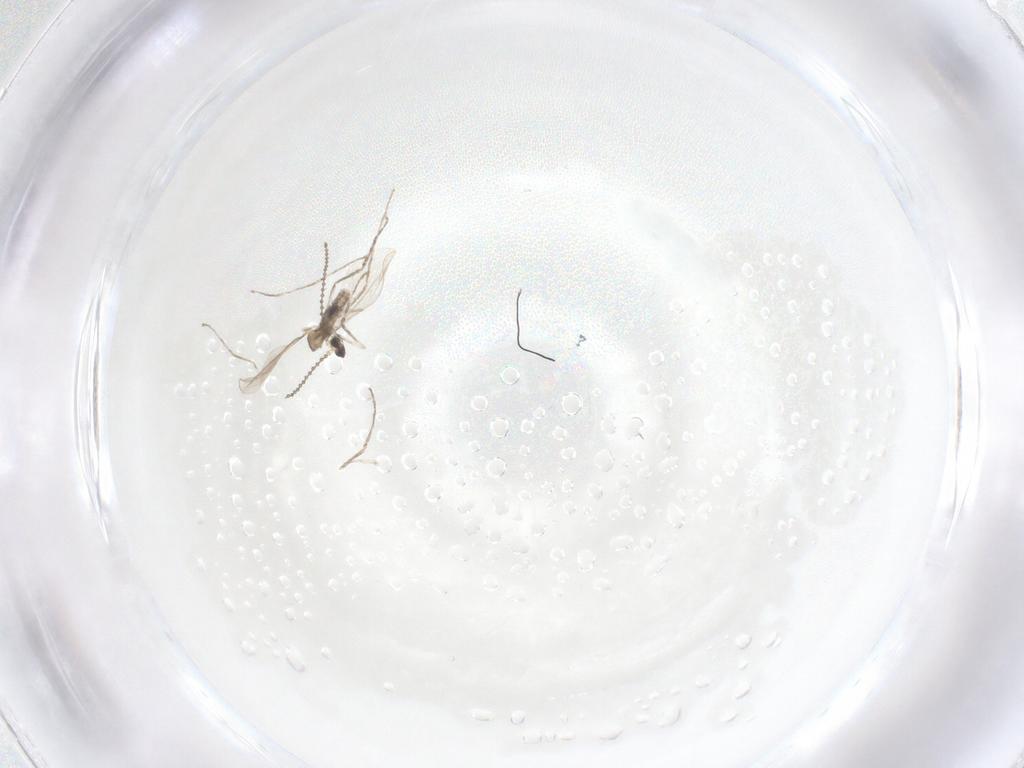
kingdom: Animalia
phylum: Arthropoda
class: Insecta
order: Diptera
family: Cecidomyiidae
